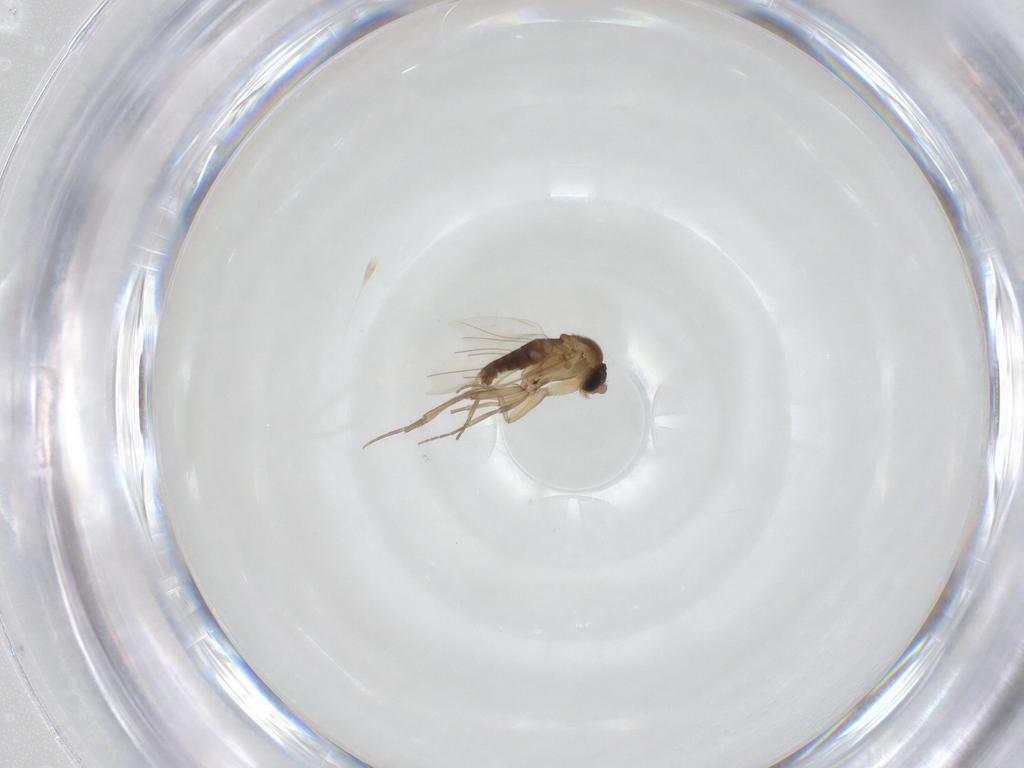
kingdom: Animalia
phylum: Arthropoda
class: Insecta
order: Diptera
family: Phoridae
